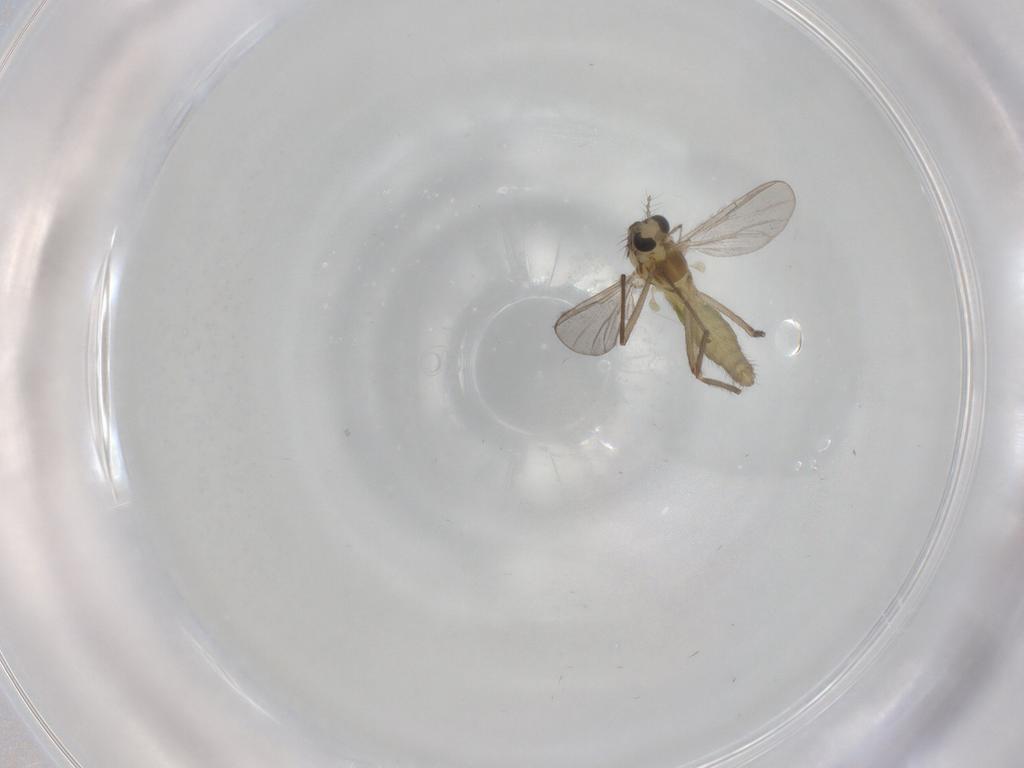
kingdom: Animalia
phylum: Arthropoda
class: Insecta
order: Diptera
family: Chironomidae
